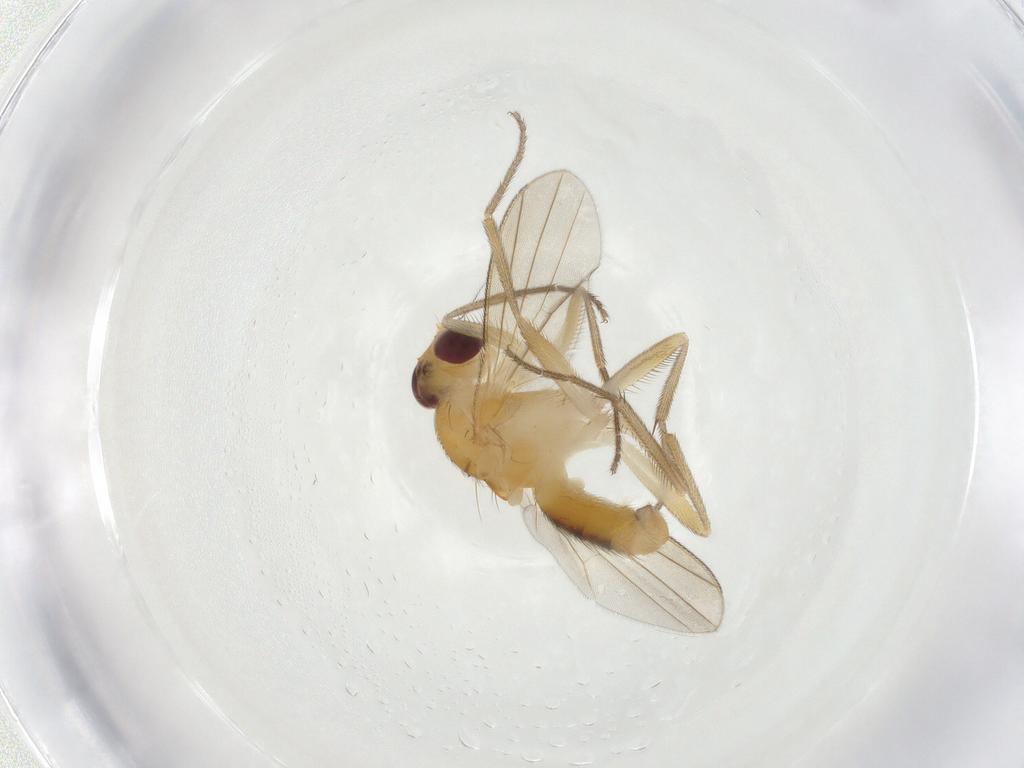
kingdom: Animalia
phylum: Arthropoda
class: Insecta
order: Diptera
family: Clusiidae
